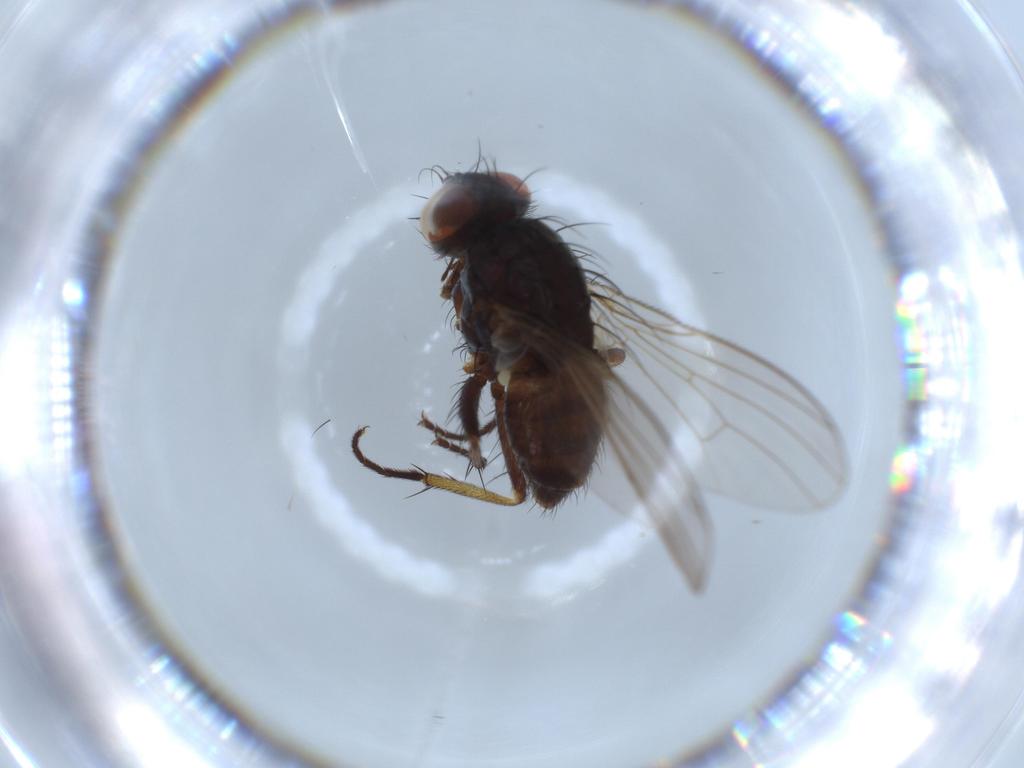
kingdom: Animalia
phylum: Arthropoda
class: Insecta
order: Diptera
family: Cecidomyiidae
